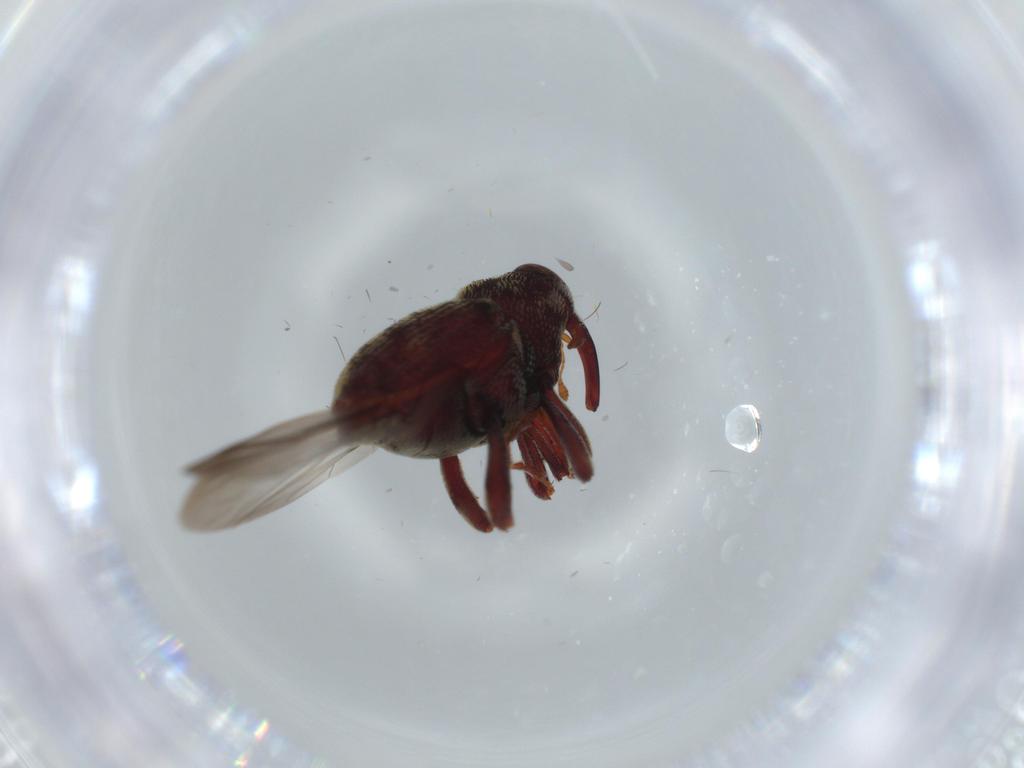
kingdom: Animalia
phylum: Arthropoda
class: Insecta
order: Coleoptera
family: Curculionidae
